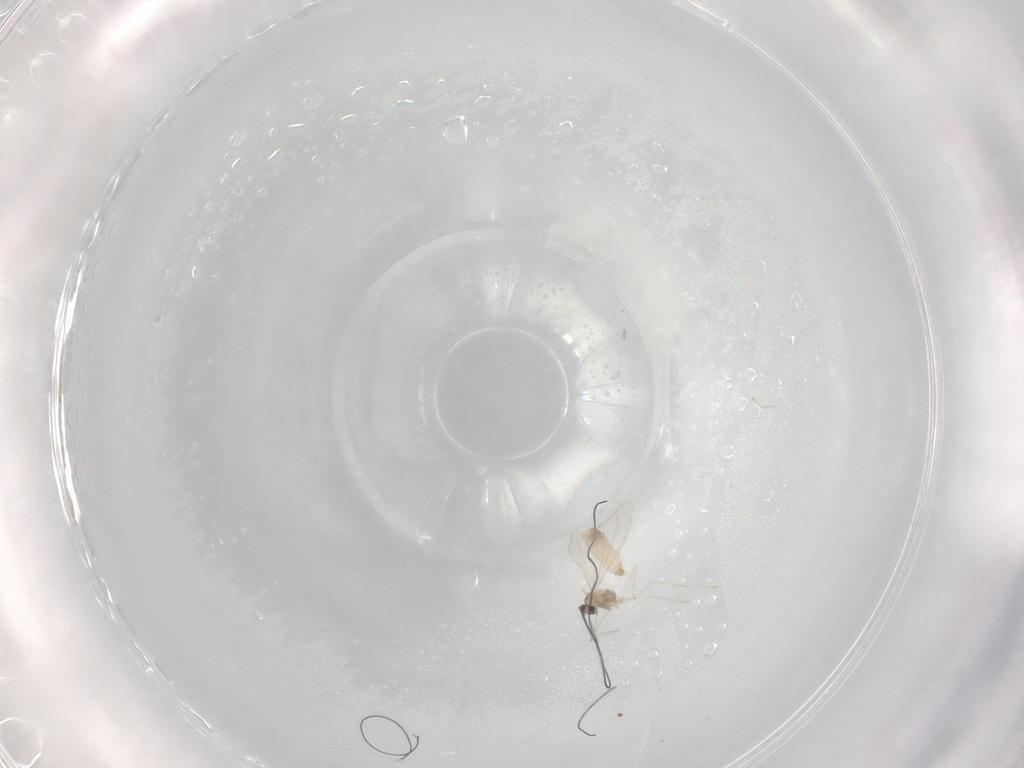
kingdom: Animalia
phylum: Arthropoda
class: Insecta
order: Diptera
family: Cecidomyiidae
